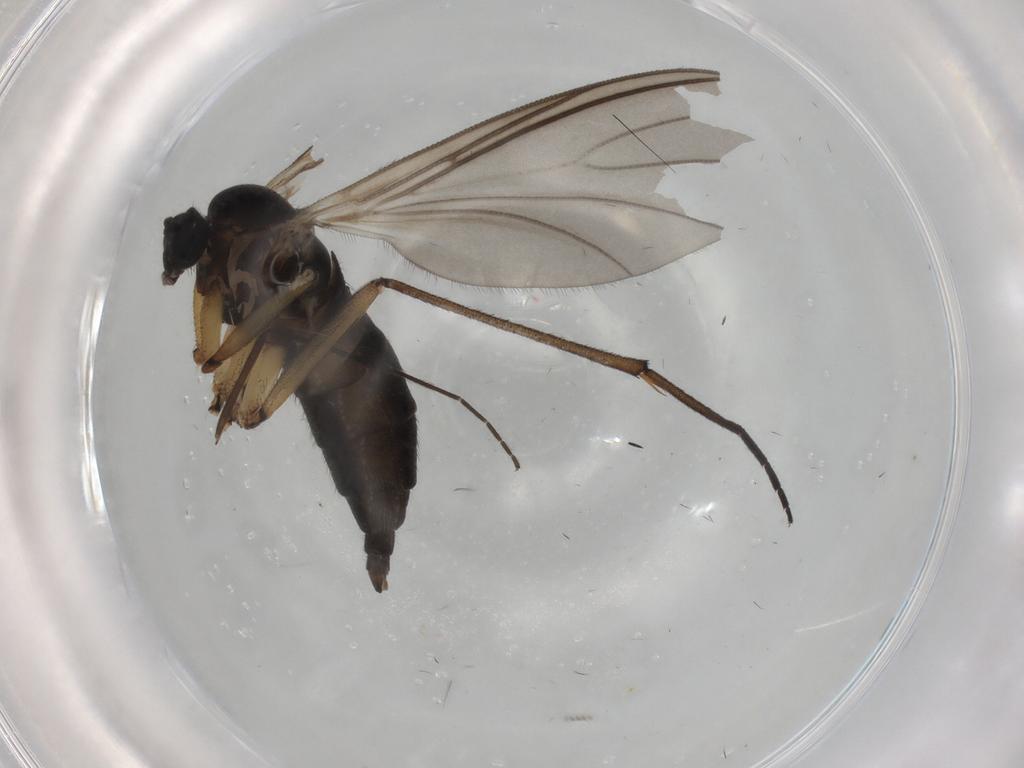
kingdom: Animalia
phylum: Arthropoda
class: Insecta
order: Diptera
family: Sciaridae
